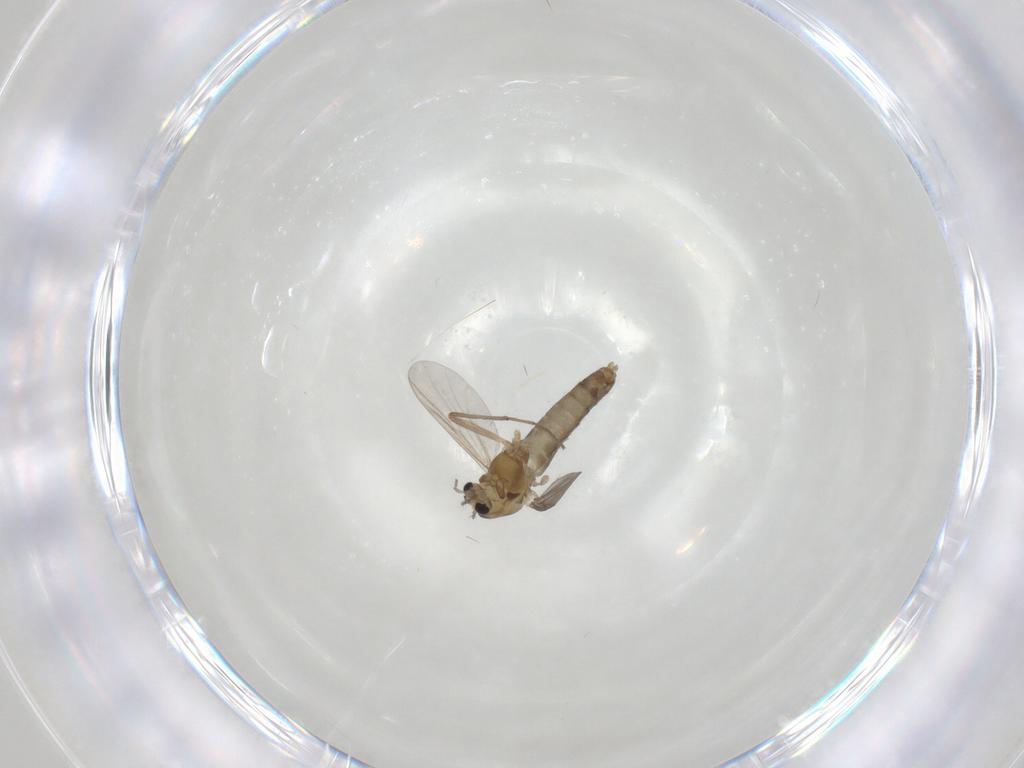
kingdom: Animalia
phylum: Arthropoda
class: Insecta
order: Diptera
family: Chironomidae
